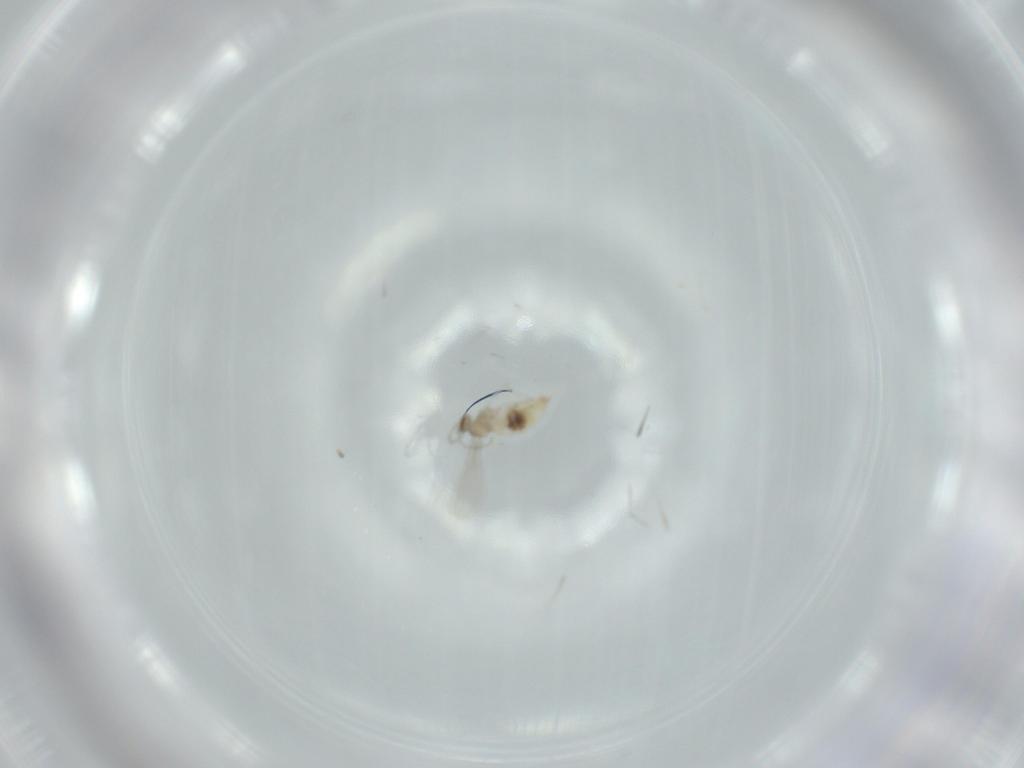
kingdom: Animalia
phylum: Arthropoda
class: Insecta
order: Diptera
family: Cecidomyiidae
